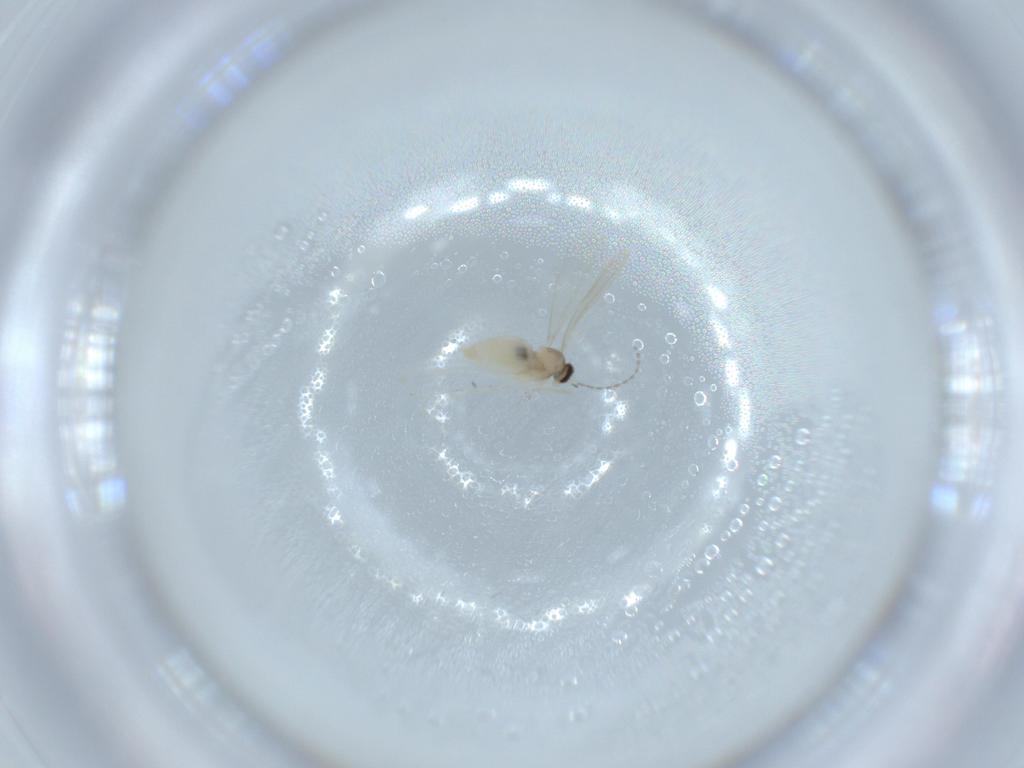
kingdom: Animalia
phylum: Arthropoda
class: Insecta
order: Diptera
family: Cecidomyiidae
